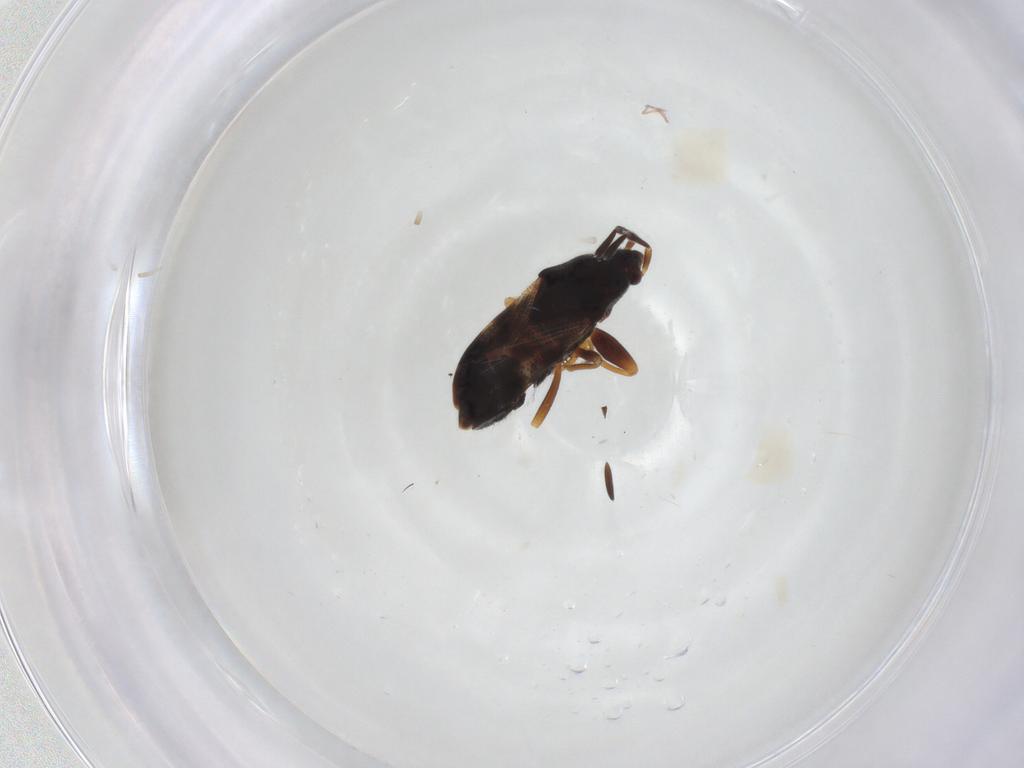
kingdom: Animalia
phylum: Arthropoda
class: Insecta
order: Hemiptera
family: Rhyparochromidae
